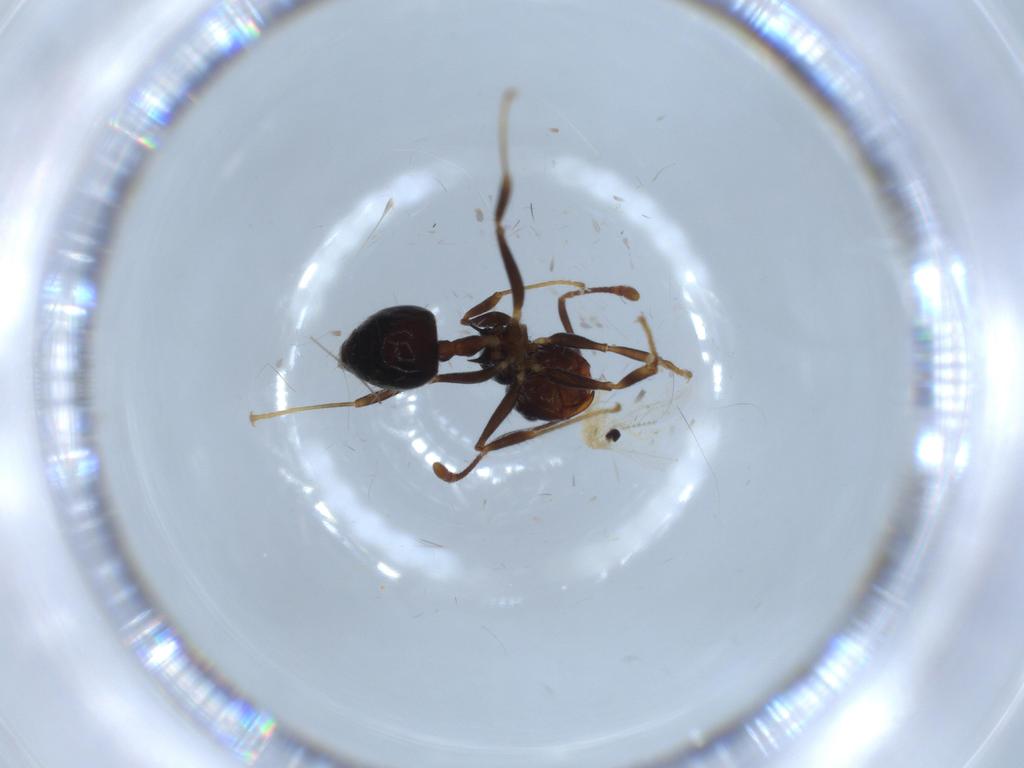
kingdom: Animalia
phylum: Arthropoda
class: Insecta
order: Diptera
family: Cecidomyiidae
